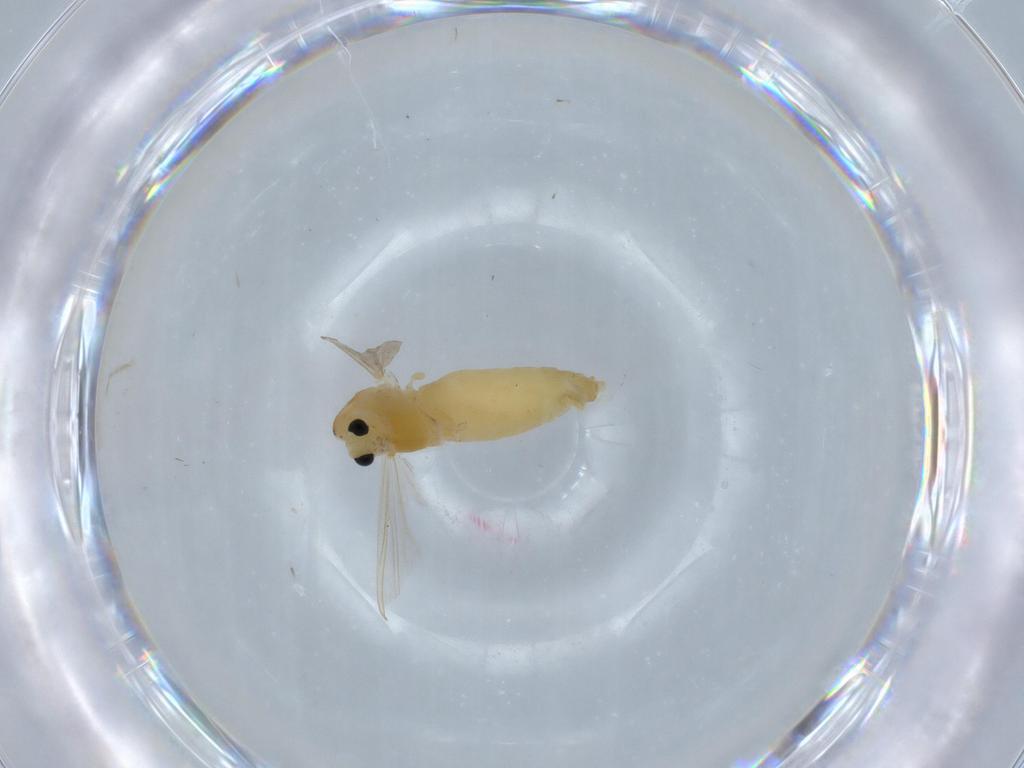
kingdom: Animalia
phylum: Arthropoda
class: Insecta
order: Diptera
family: Chironomidae
